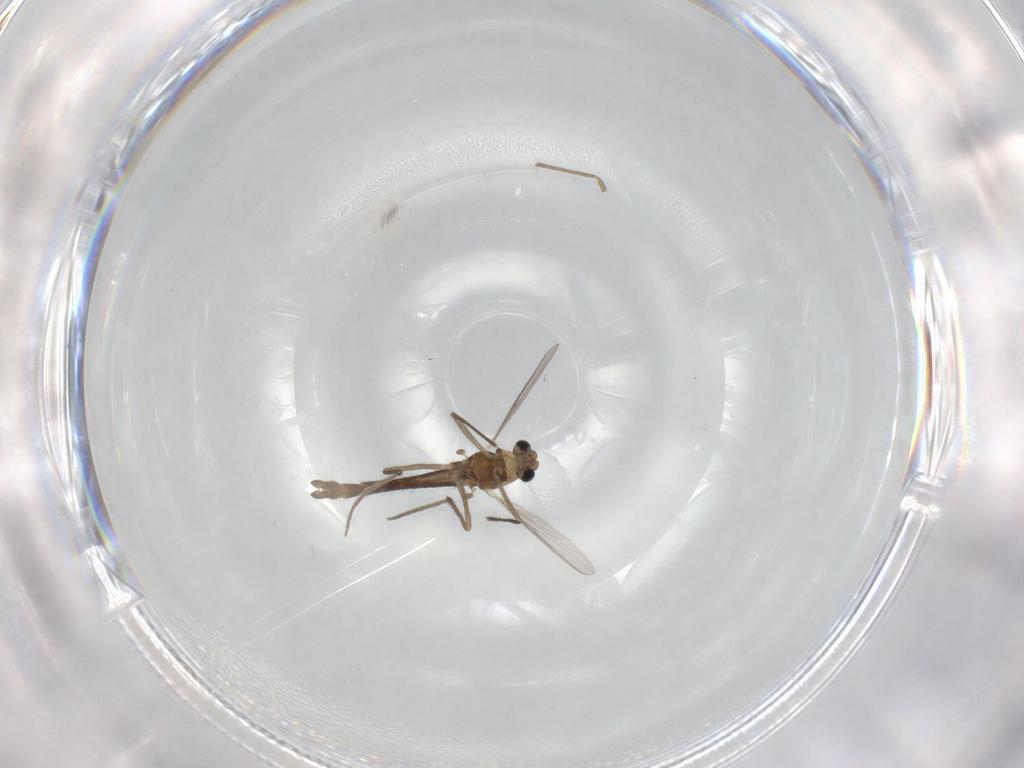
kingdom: Animalia
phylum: Arthropoda
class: Insecta
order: Diptera
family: Chironomidae
